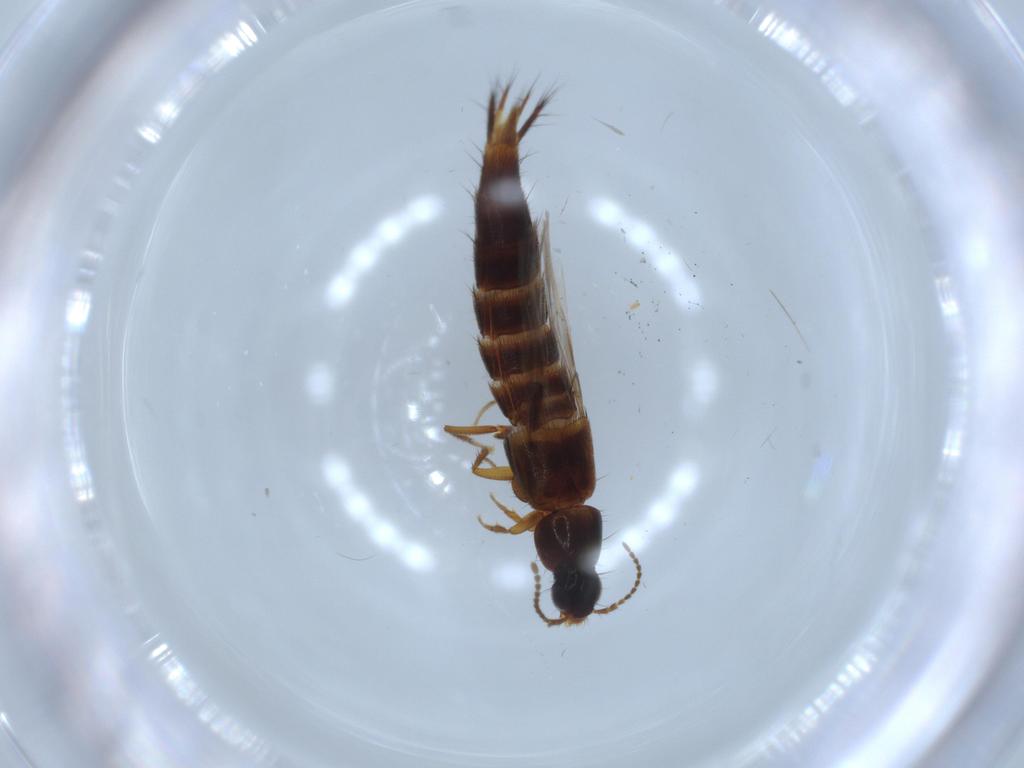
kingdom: Animalia
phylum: Arthropoda
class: Insecta
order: Coleoptera
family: Staphylinidae
